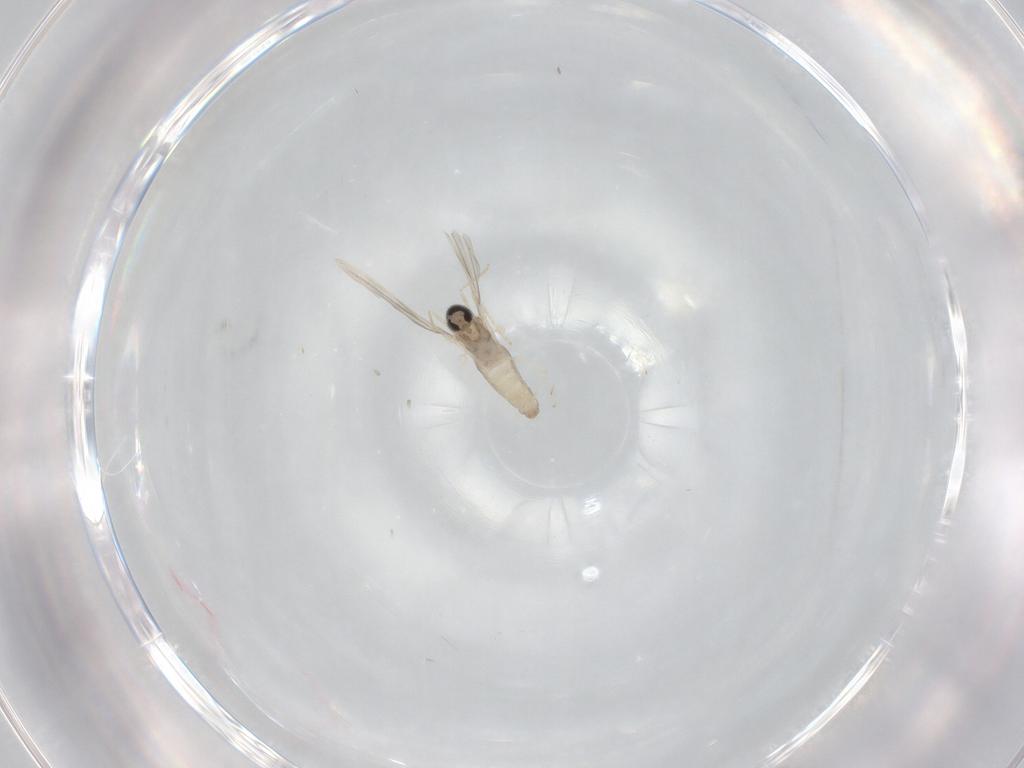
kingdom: Animalia
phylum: Arthropoda
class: Insecta
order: Diptera
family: Cecidomyiidae
